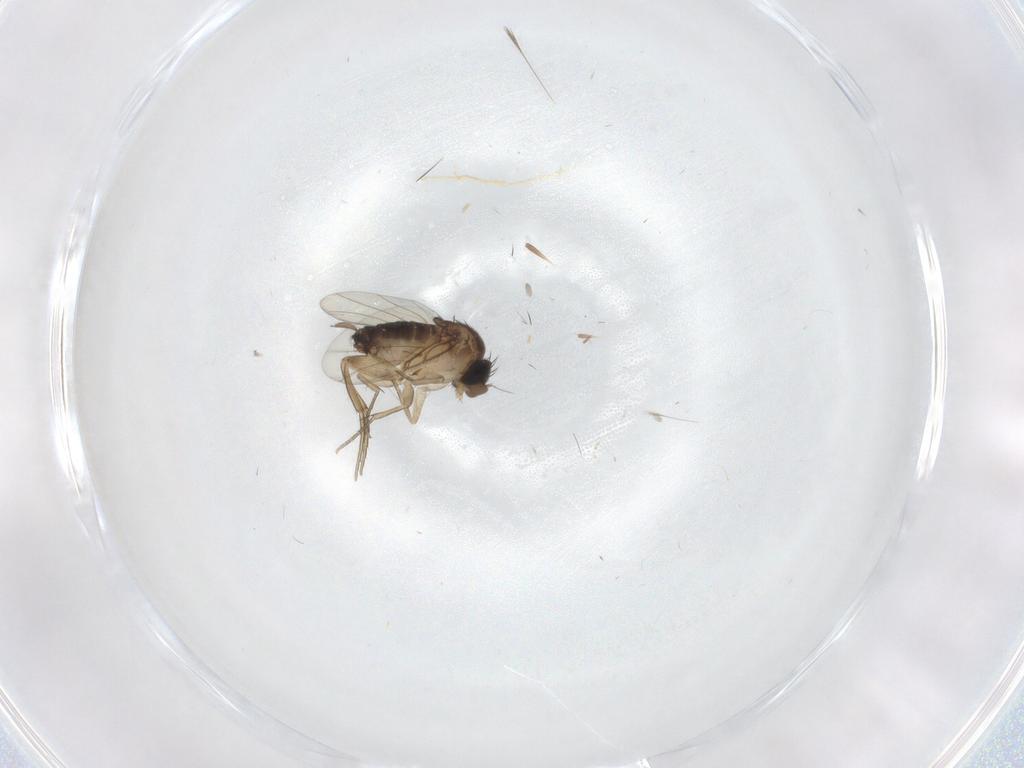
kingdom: Animalia
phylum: Arthropoda
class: Insecta
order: Diptera
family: Phoridae
